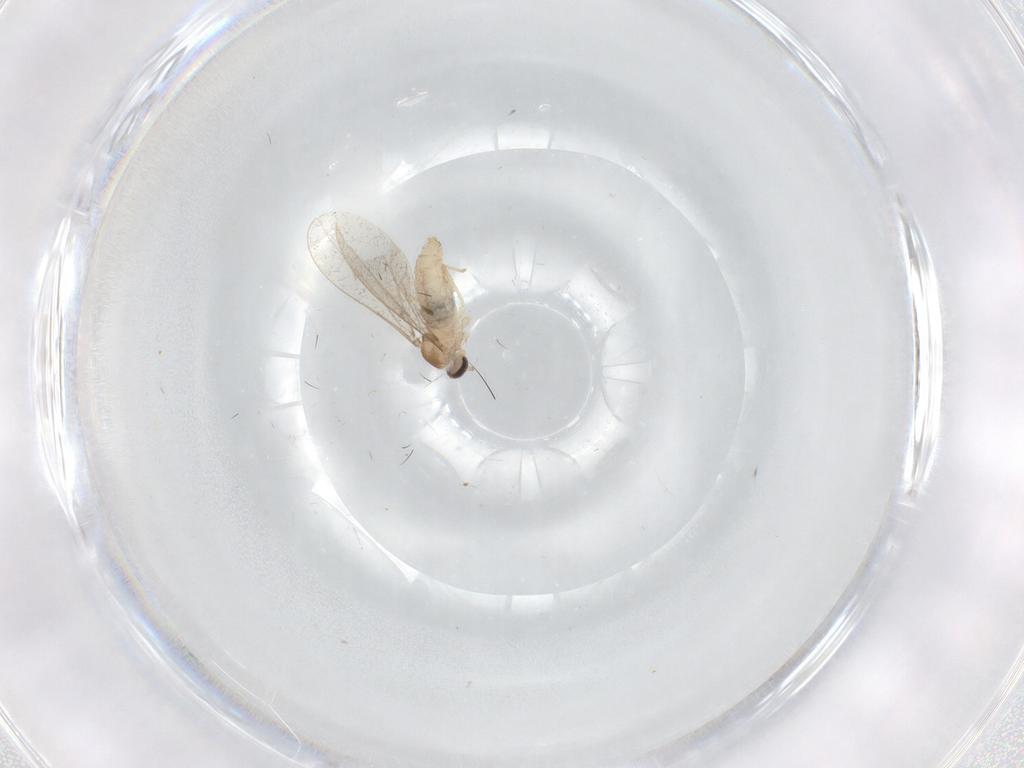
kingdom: Animalia
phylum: Arthropoda
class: Insecta
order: Diptera
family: Cecidomyiidae
